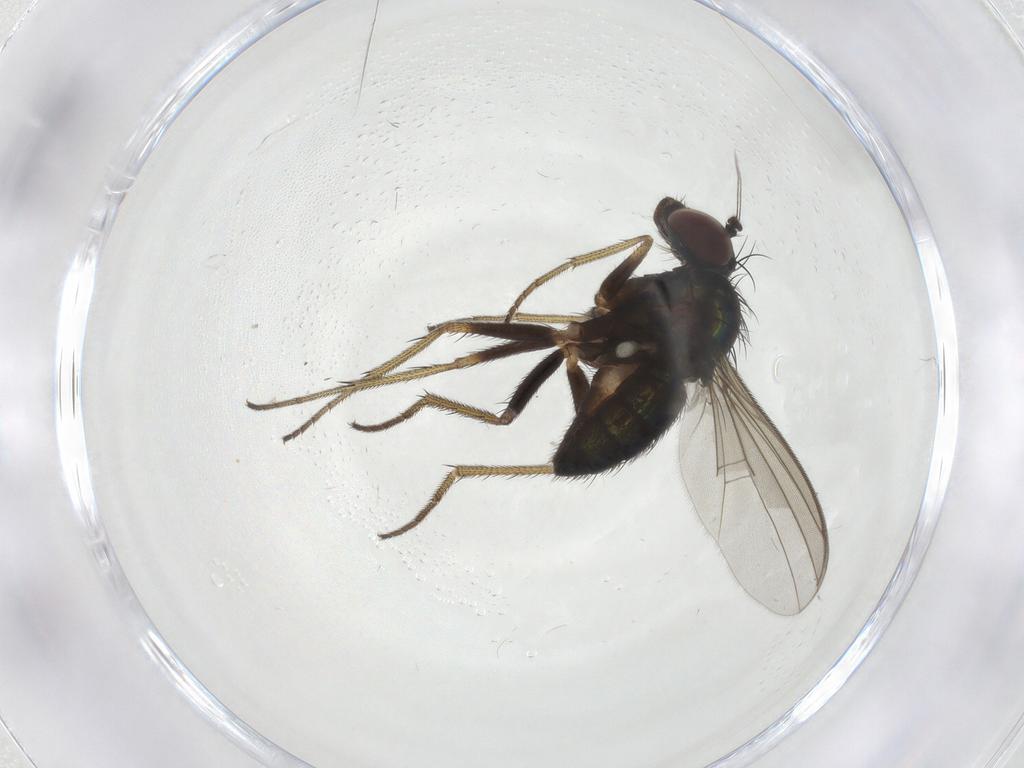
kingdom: Animalia
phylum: Arthropoda
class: Insecta
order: Diptera
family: Dolichopodidae
